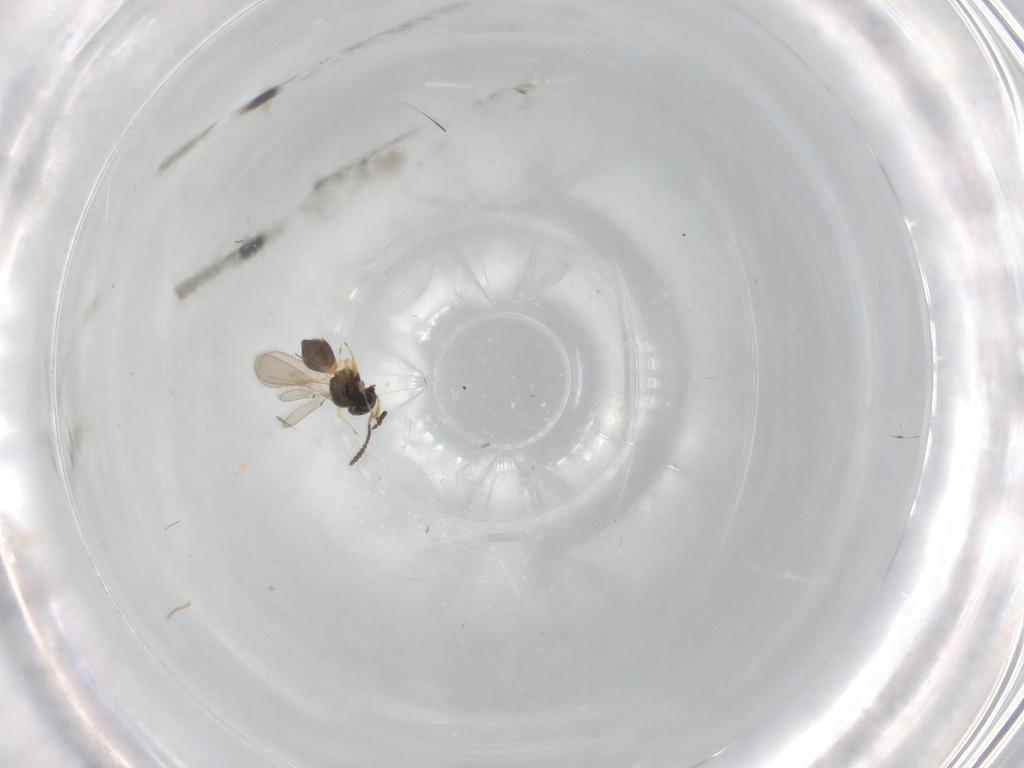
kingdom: Animalia
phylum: Arthropoda
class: Insecta
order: Hymenoptera
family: Scelionidae
